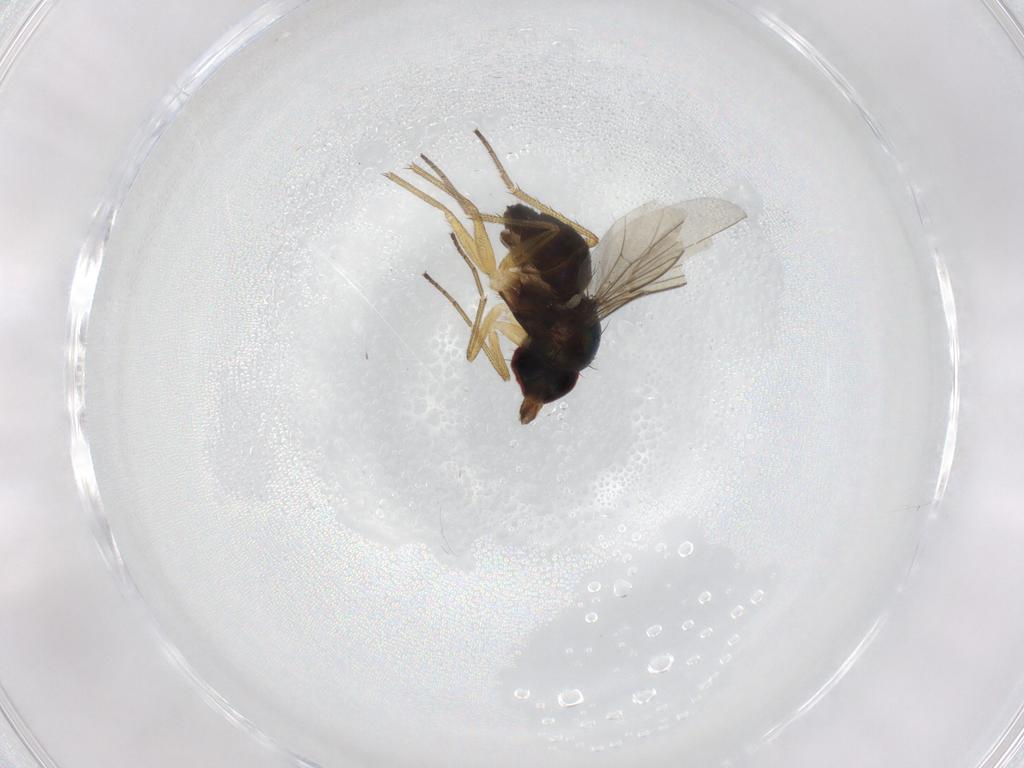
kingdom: Animalia
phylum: Arthropoda
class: Insecta
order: Diptera
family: Dolichopodidae
